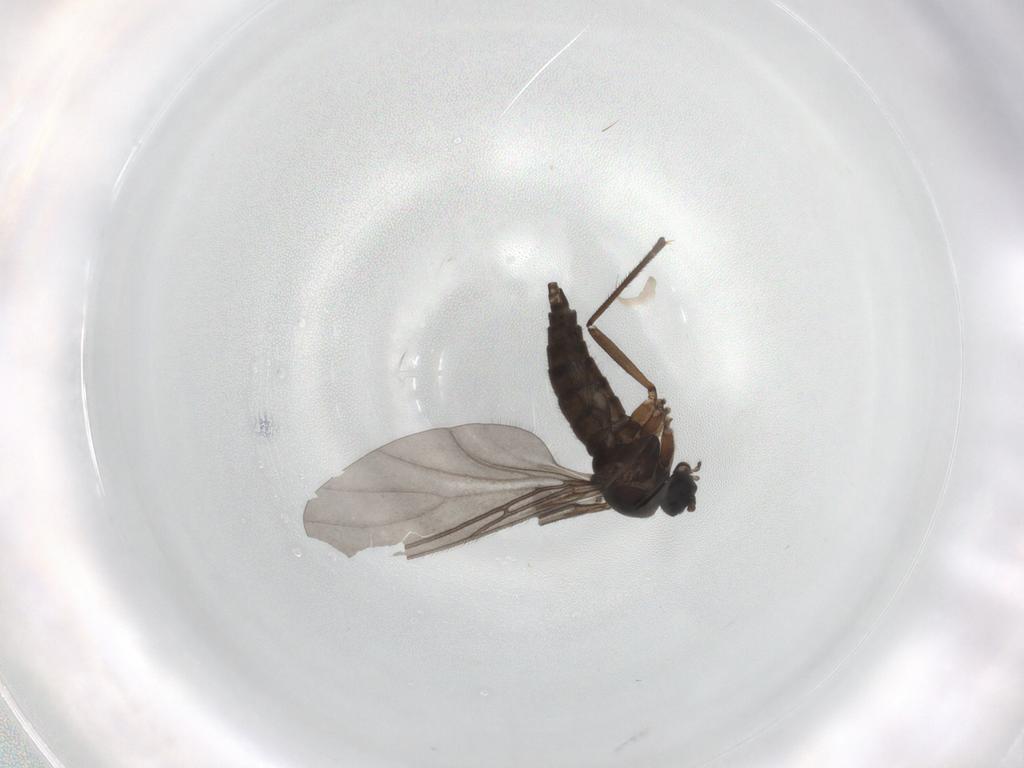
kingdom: Animalia
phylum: Arthropoda
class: Insecta
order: Diptera
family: Sciaridae
